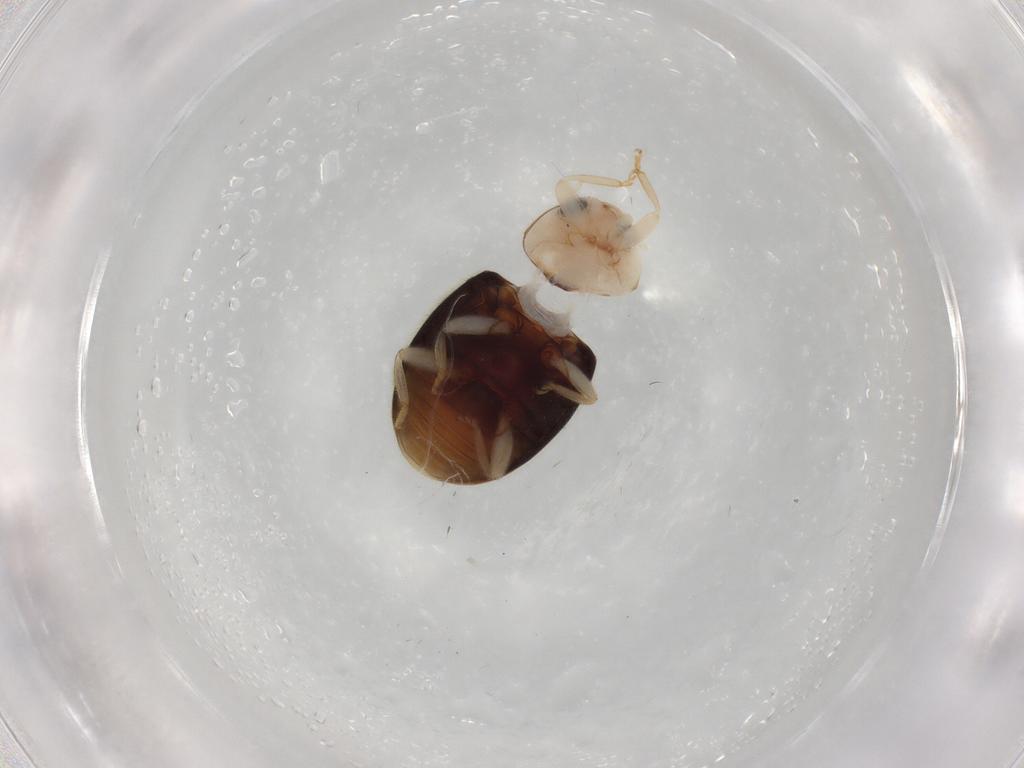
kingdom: Animalia
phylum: Arthropoda
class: Insecta
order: Coleoptera
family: Coccinellidae
